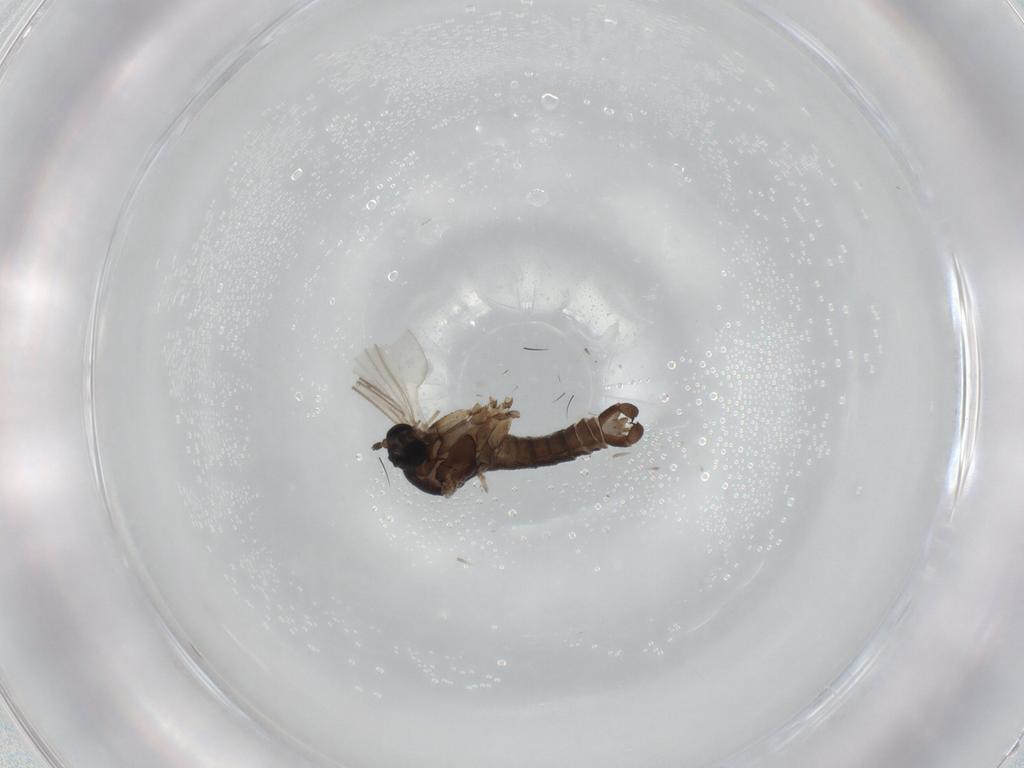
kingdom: Animalia
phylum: Arthropoda
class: Insecta
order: Diptera
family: Sciaridae
